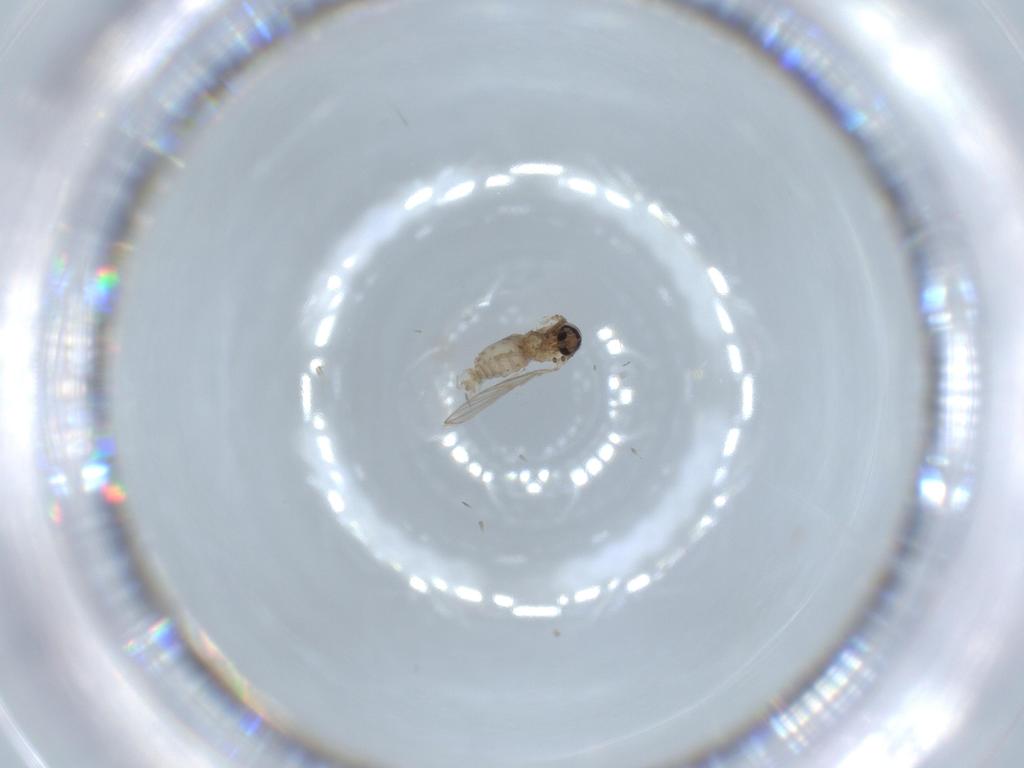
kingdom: Animalia
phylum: Arthropoda
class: Insecta
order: Diptera
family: Psychodidae
